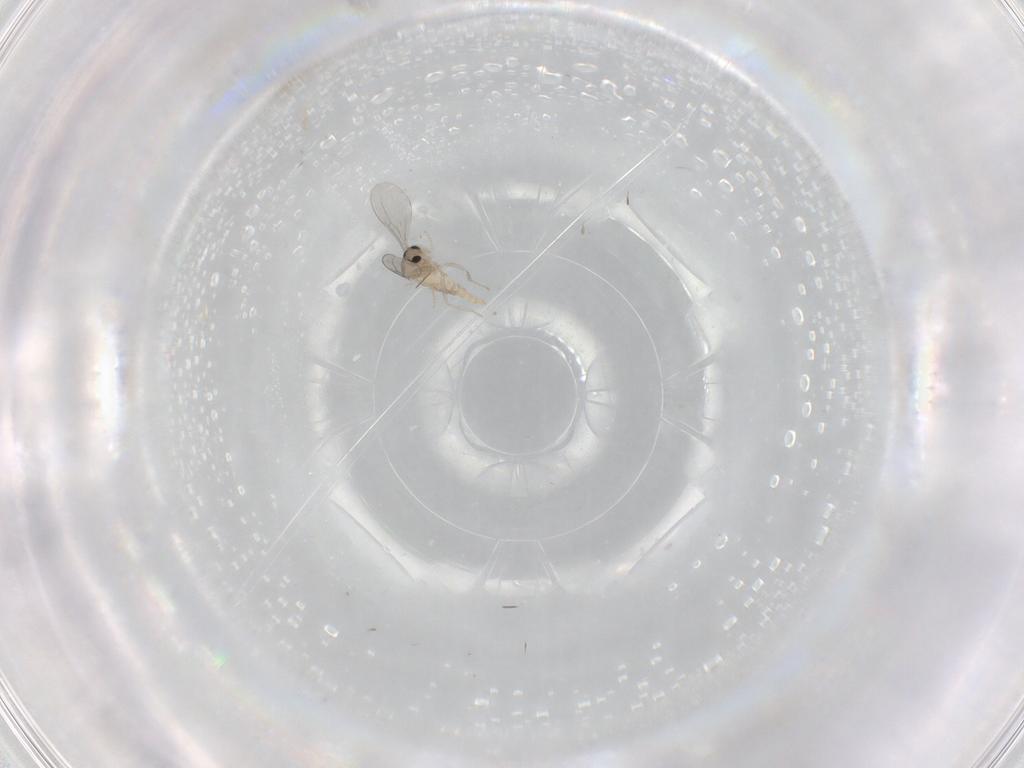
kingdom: Animalia
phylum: Arthropoda
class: Insecta
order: Diptera
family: Cecidomyiidae
